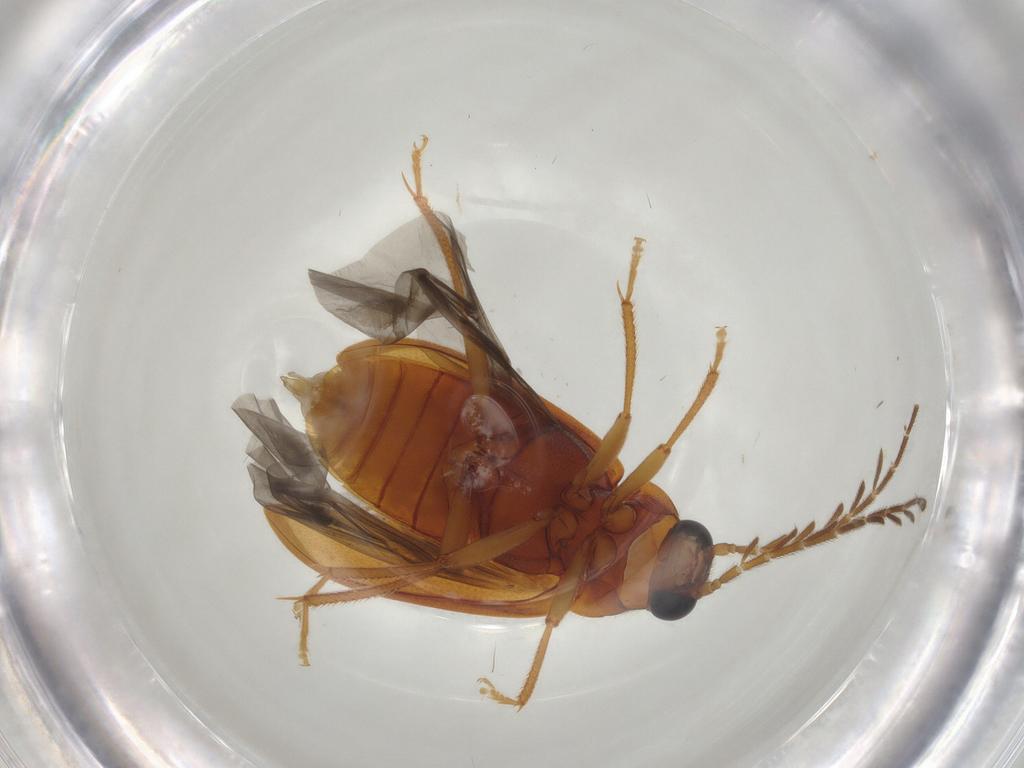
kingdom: Animalia
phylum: Arthropoda
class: Insecta
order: Coleoptera
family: Ptilodactylidae
